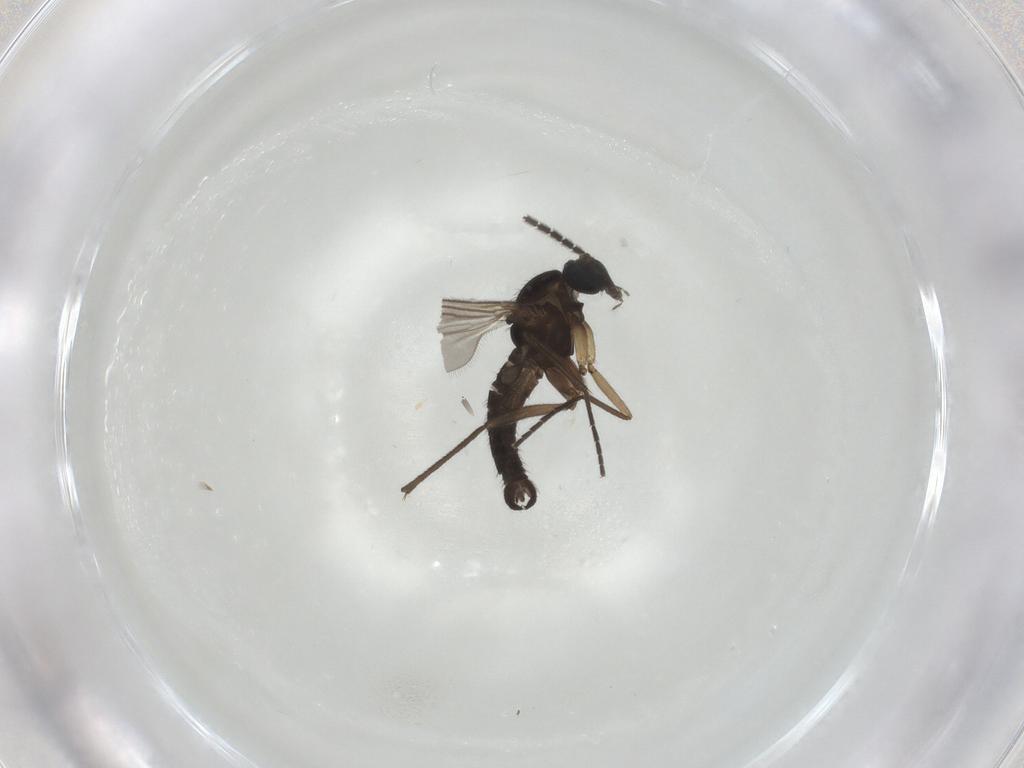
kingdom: Animalia
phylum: Arthropoda
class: Insecta
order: Diptera
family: Sciaridae
